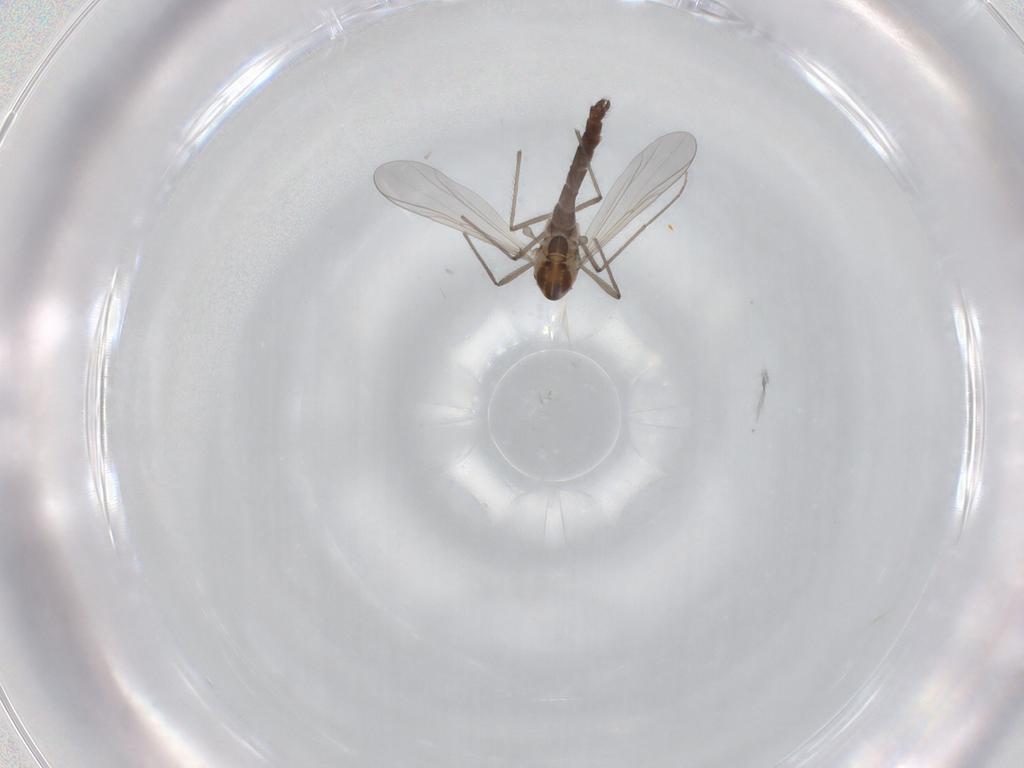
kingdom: Animalia
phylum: Arthropoda
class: Insecta
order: Diptera
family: Chironomidae
